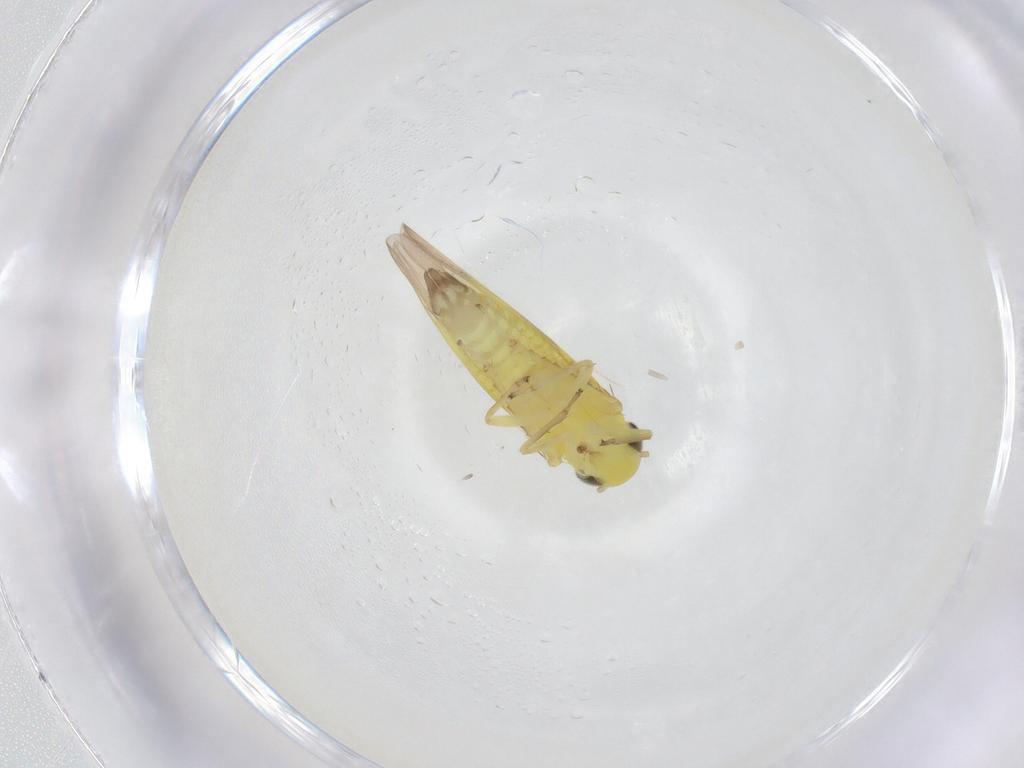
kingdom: Animalia
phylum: Arthropoda
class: Insecta
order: Hemiptera
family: Cicadellidae
